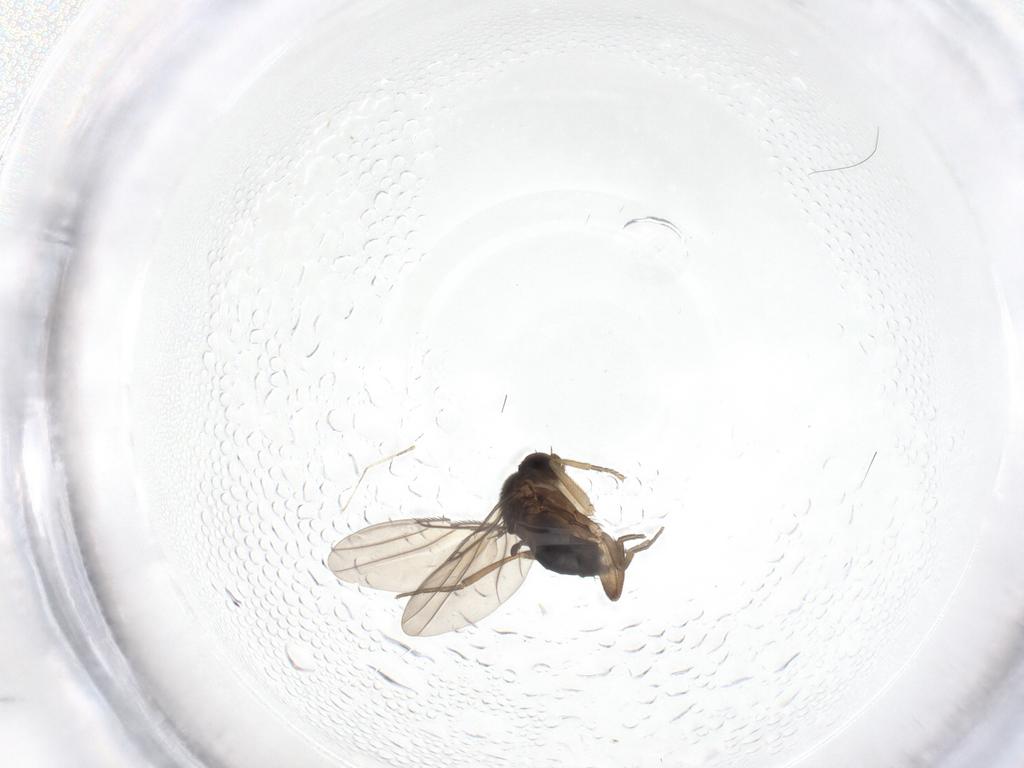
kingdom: Animalia
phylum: Arthropoda
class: Insecta
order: Diptera
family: Phoridae
